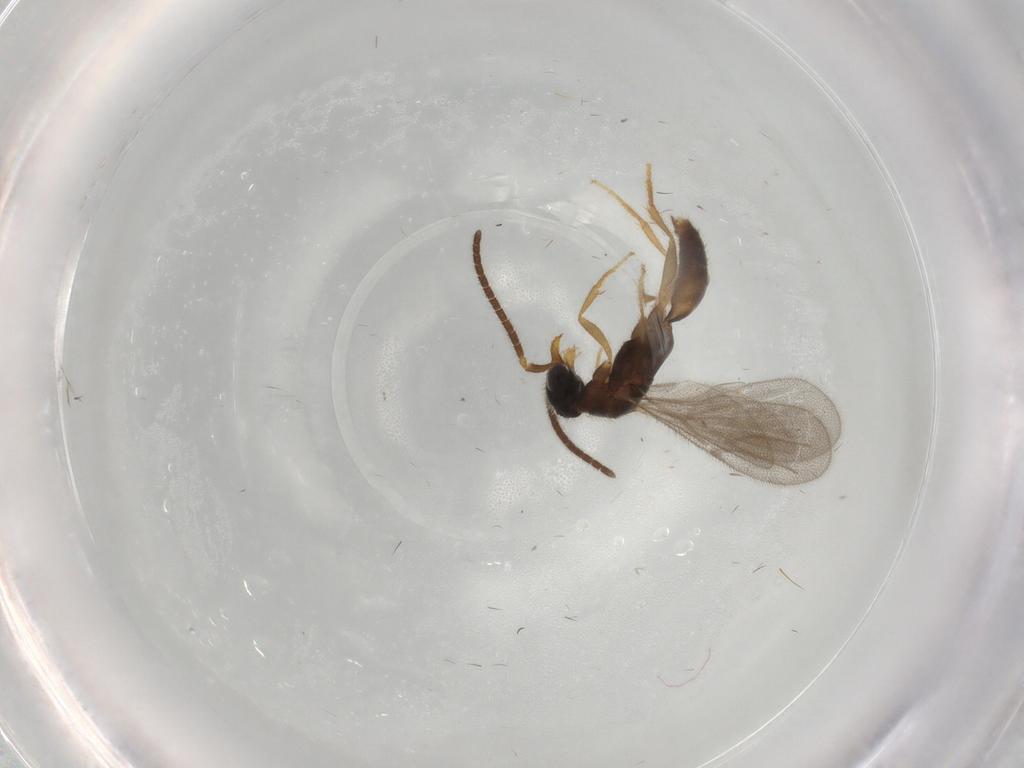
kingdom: Animalia
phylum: Arthropoda
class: Insecta
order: Hymenoptera
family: Bethylidae
